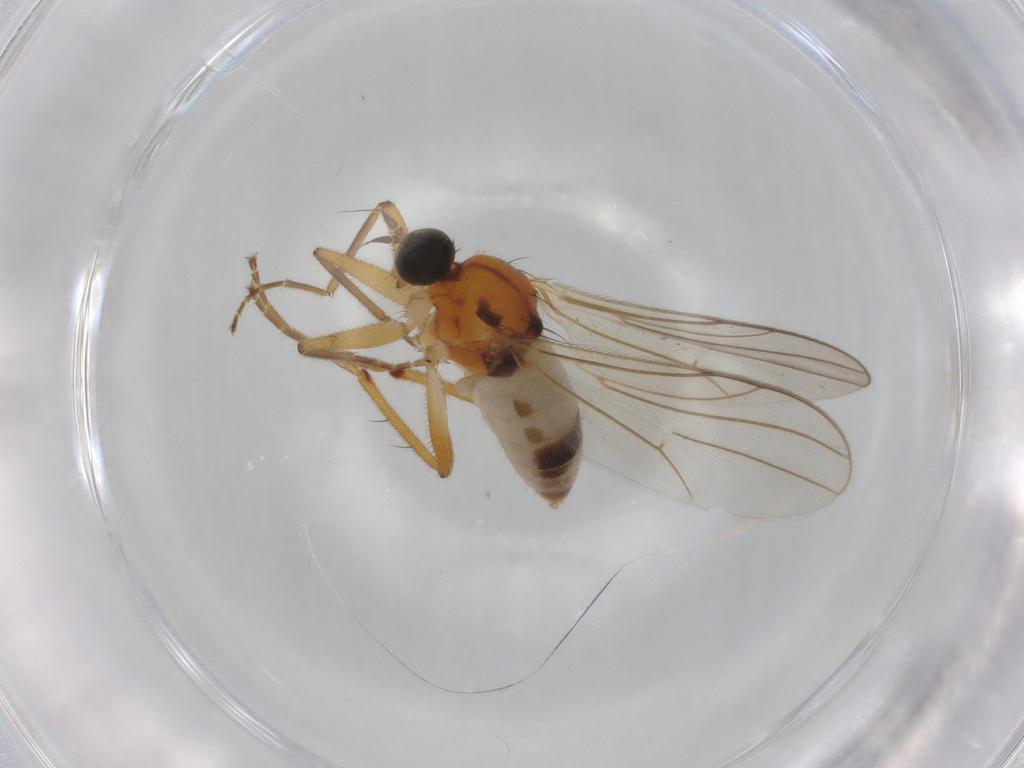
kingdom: Animalia
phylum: Arthropoda
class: Insecta
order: Diptera
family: Hybotidae
